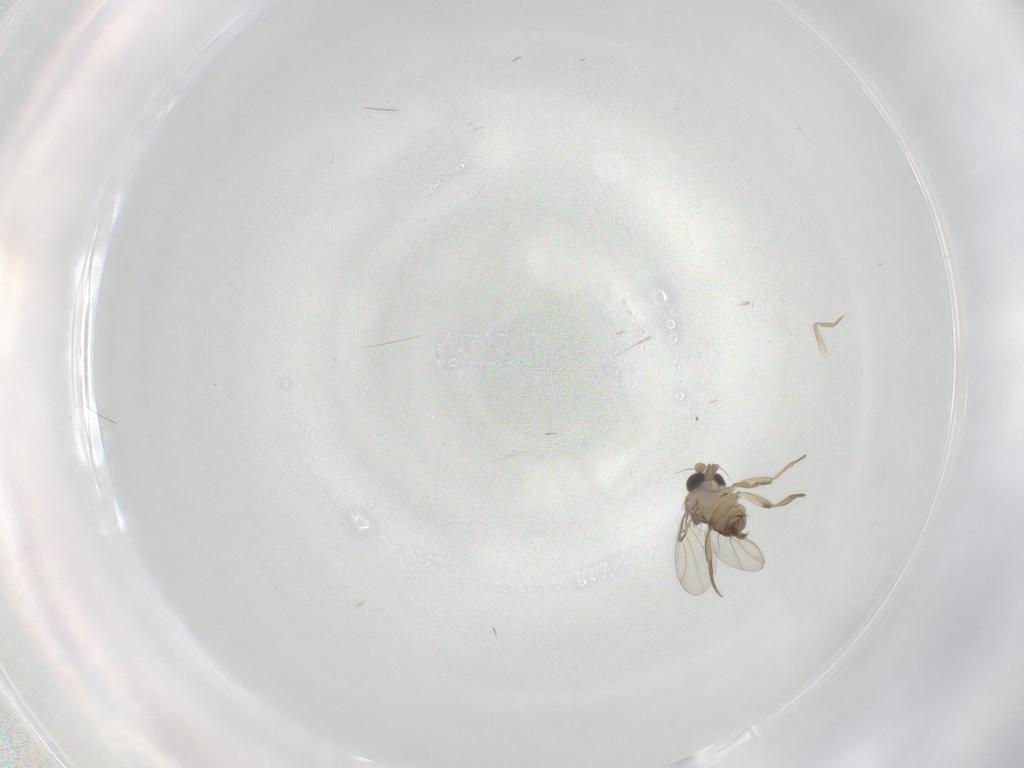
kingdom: Animalia
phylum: Arthropoda
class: Insecta
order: Diptera
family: Phoridae
